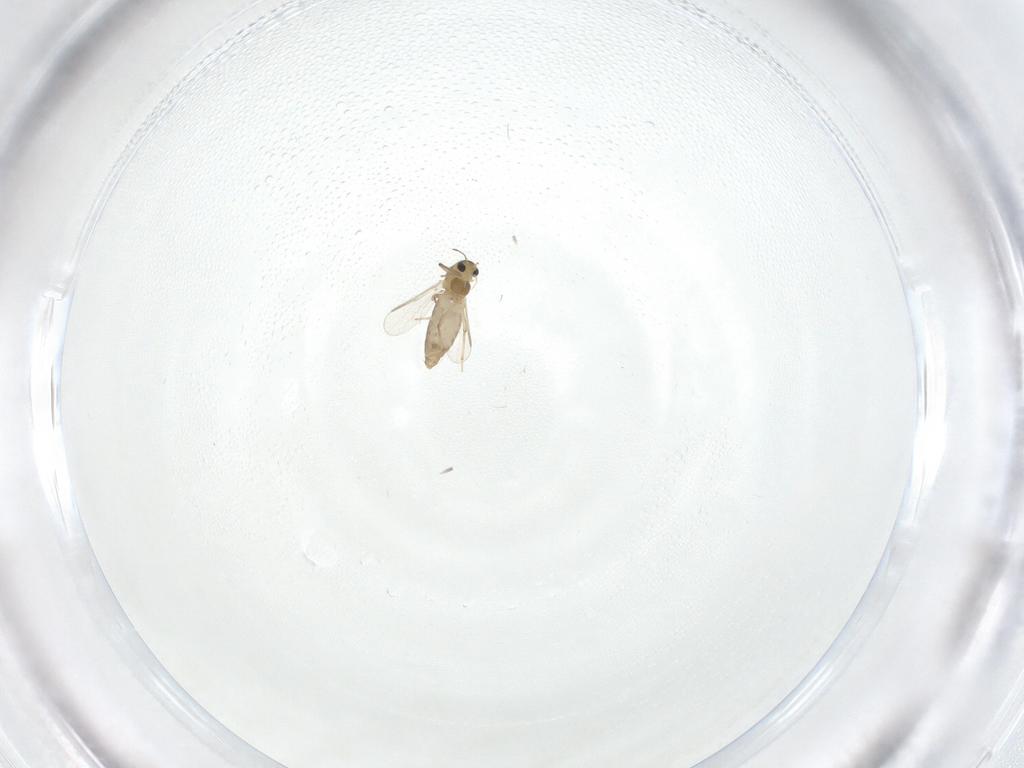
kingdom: Animalia
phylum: Arthropoda
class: Insecta
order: Diptera
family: Chironomidae
